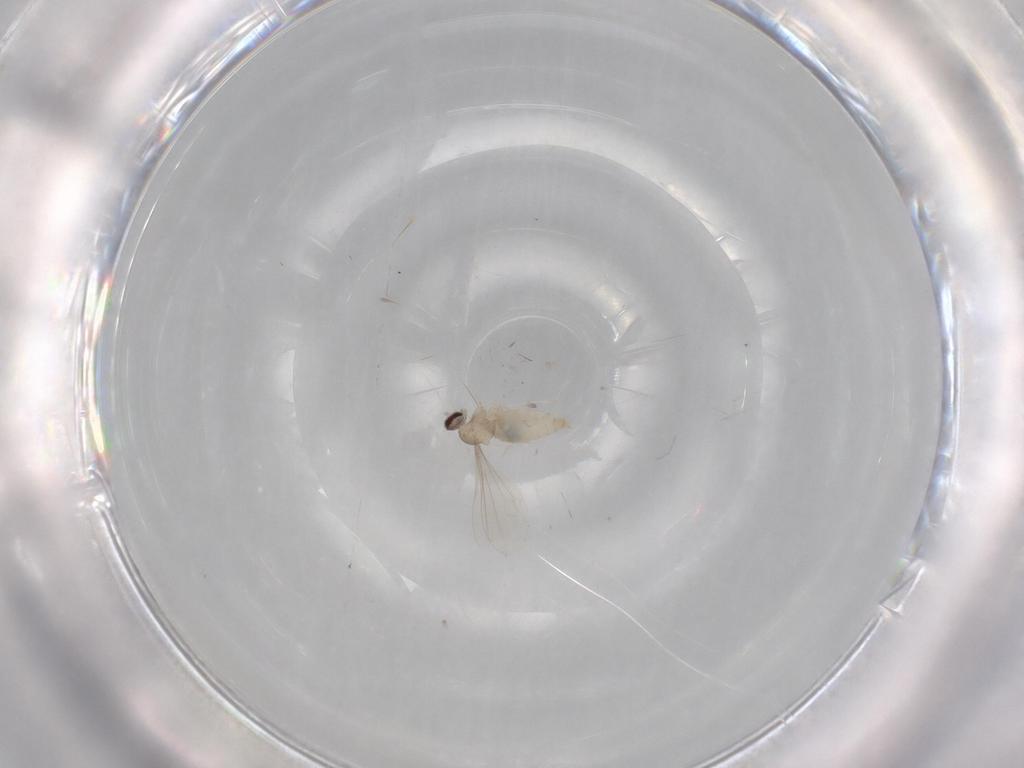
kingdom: Animalia
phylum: Arthropoda
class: Insecta
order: Diptera
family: Cecidomyiidae
